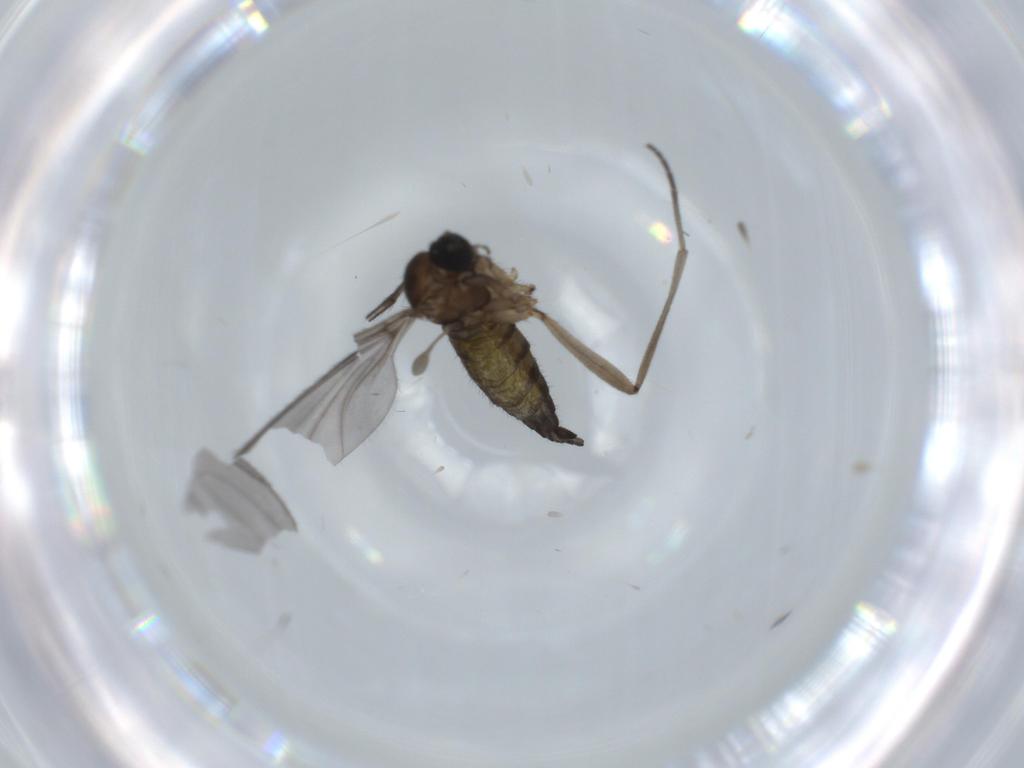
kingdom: Animalia
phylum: Arthropoda
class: Insecta
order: Diptera
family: Sciaridae
